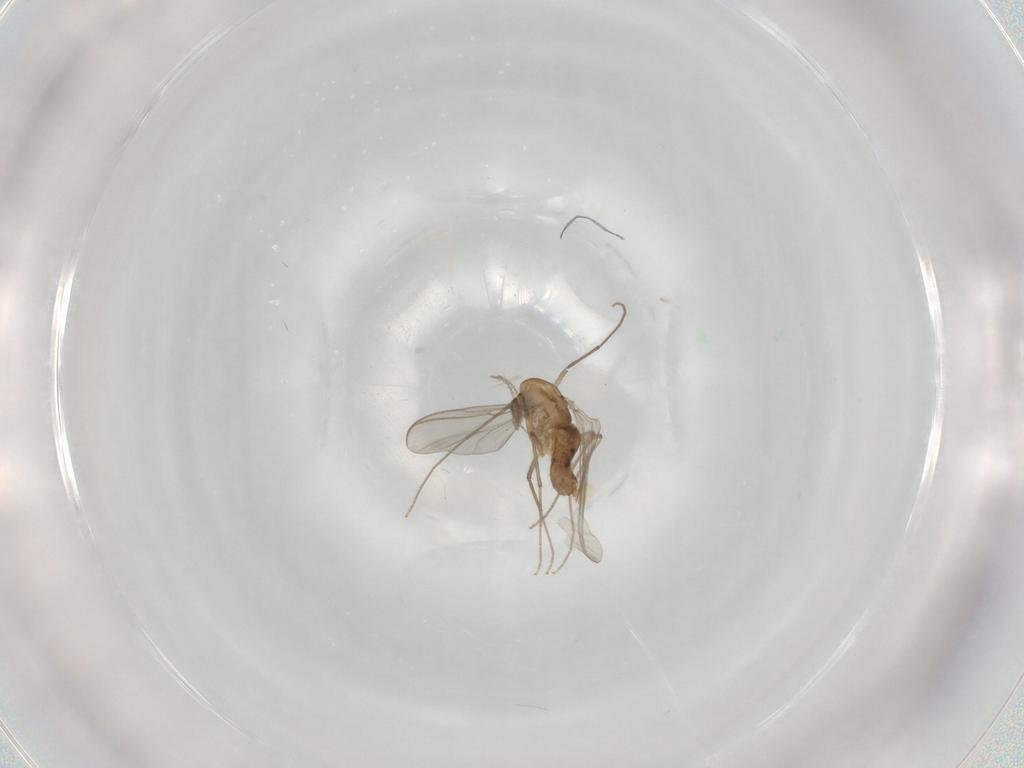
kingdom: Animalia
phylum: Arthropoda
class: Insecta
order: Diptera
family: Chironomidae
